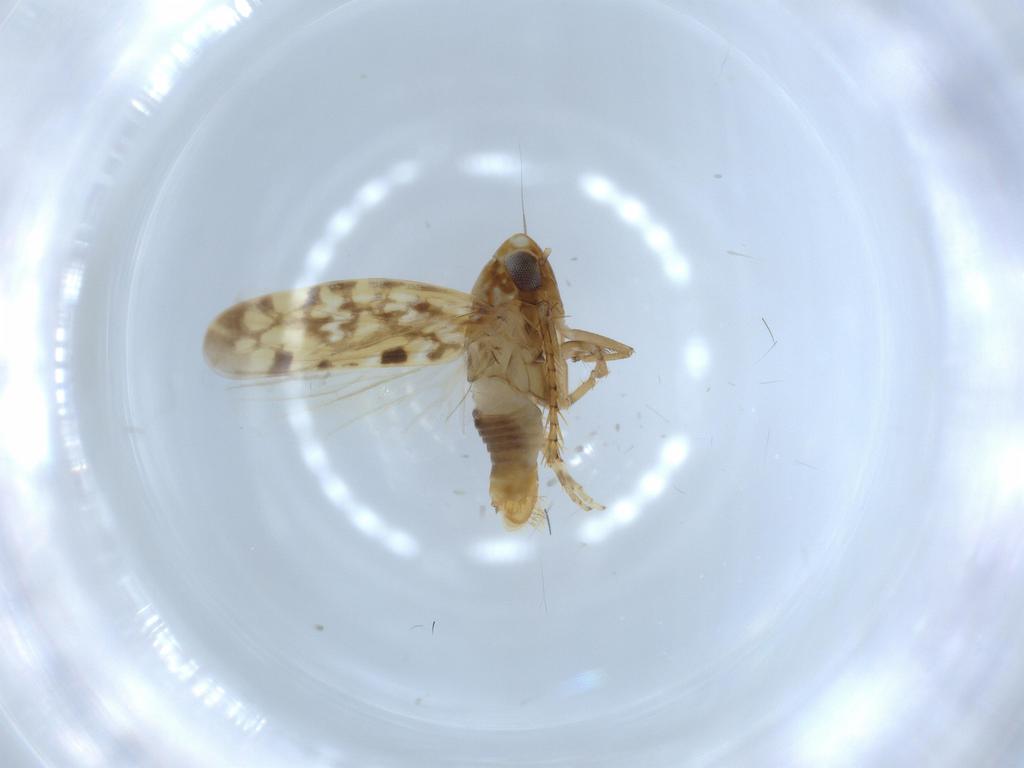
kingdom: Animalia
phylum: Arthropoda
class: Insecta
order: Hemiptera
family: Cicadellidae
